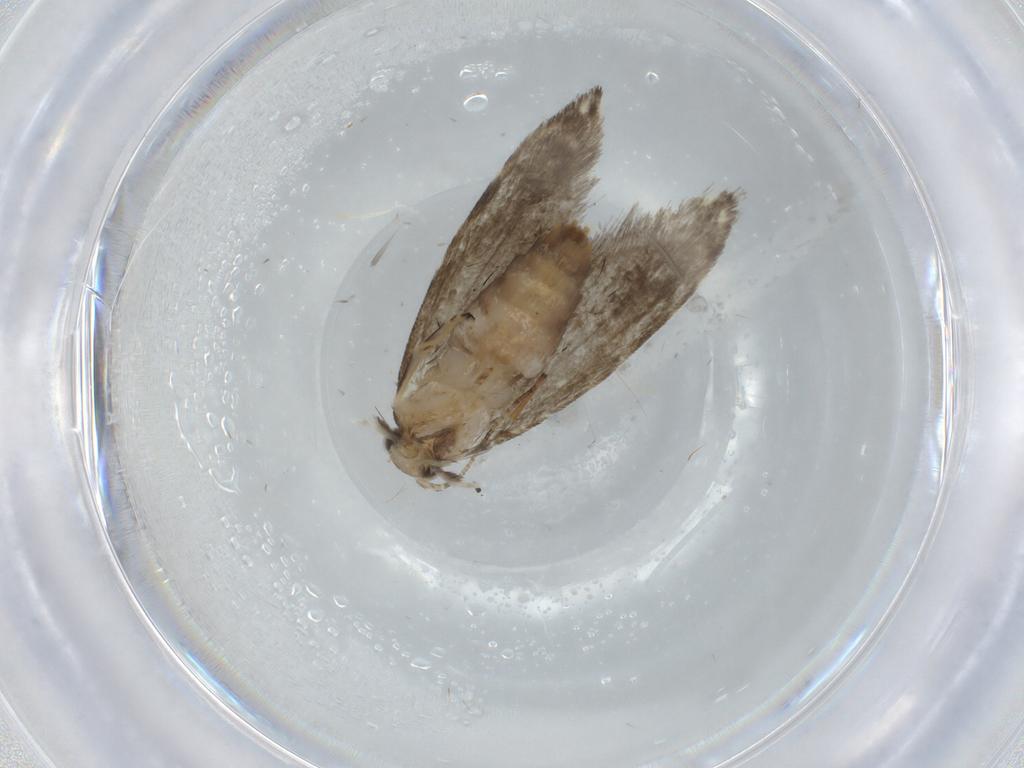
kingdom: Animalia
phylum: Arthropoda
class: Insecta
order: Lepidoptera
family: Tineidae
